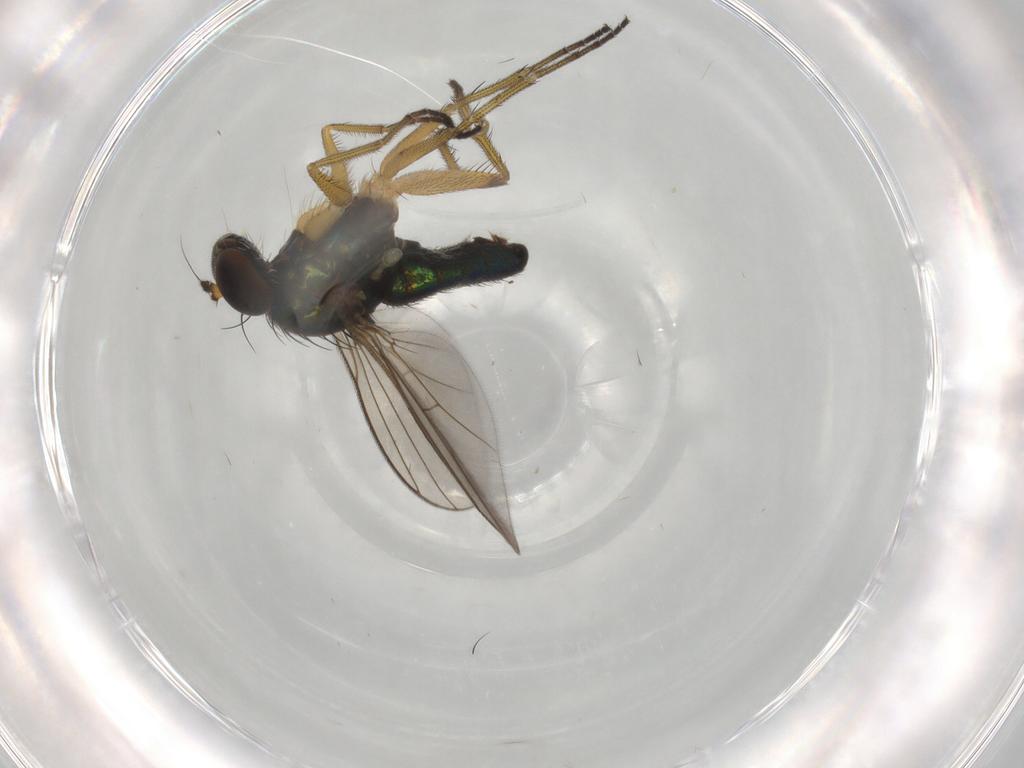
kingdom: Animalia
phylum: Arthropoda
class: Insecta
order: Diptera
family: Dolichopodidae
